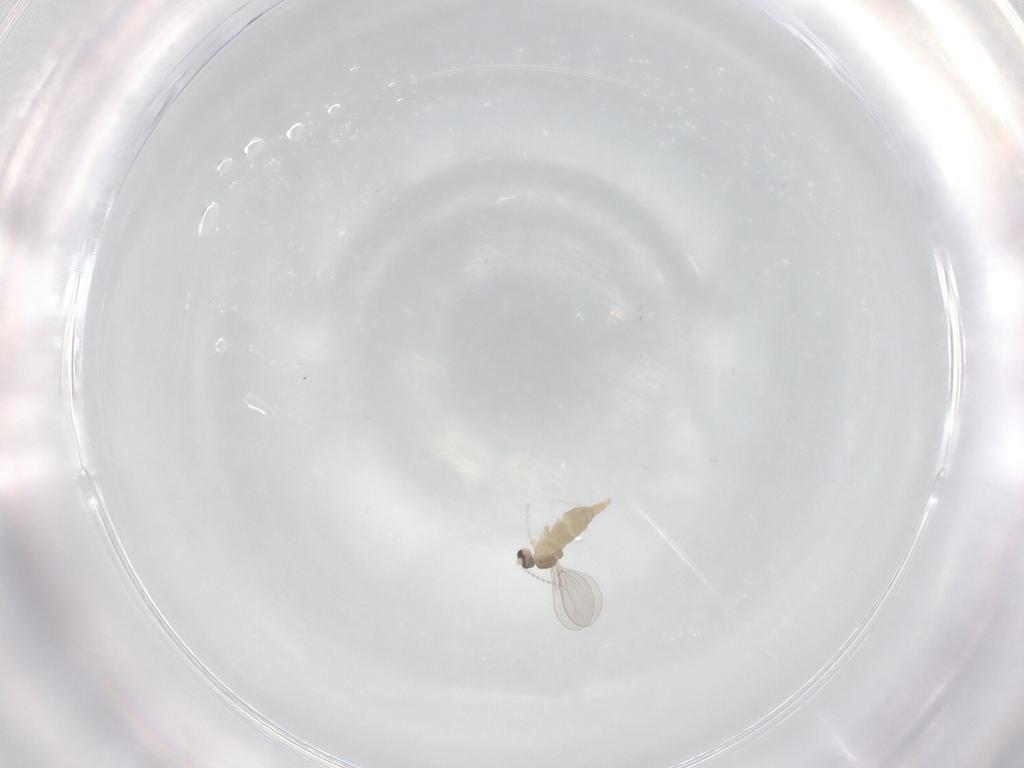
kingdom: Animalia
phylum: Arthropoda
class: Insecta
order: Diptera
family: Cecidomyiidae
